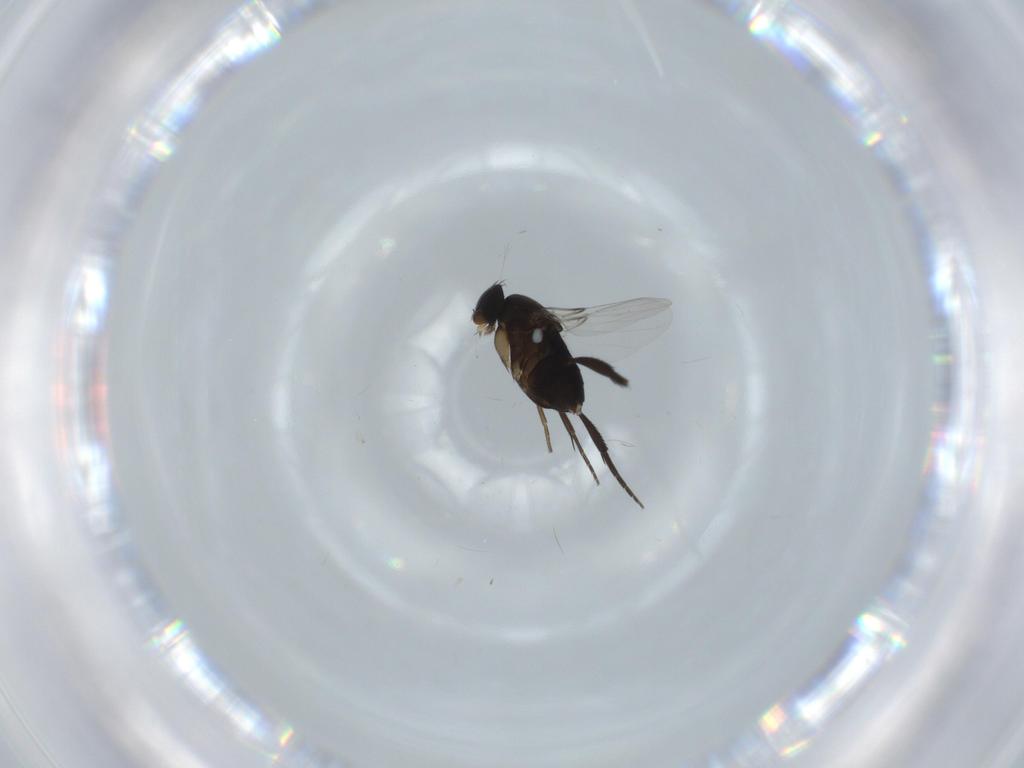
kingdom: Animalia
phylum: Arthropoda
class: Insecta
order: Diptera
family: Phoridae
